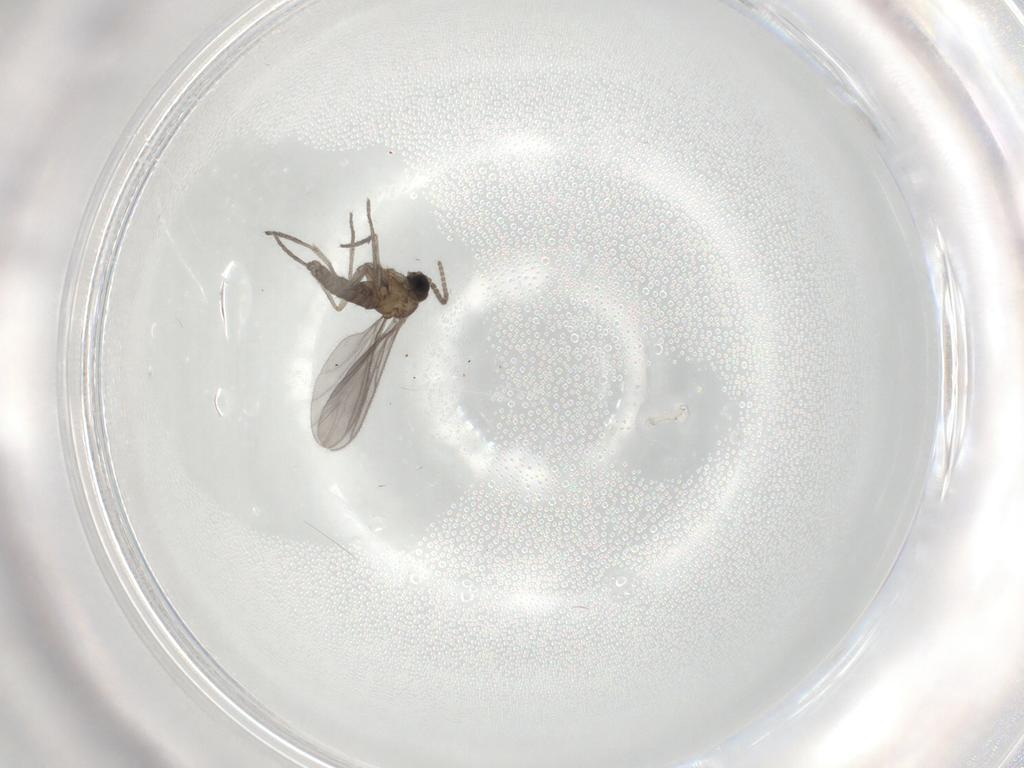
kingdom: Animalia
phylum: Arthropoda
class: Insecta
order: Diptera
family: Sciaridae
